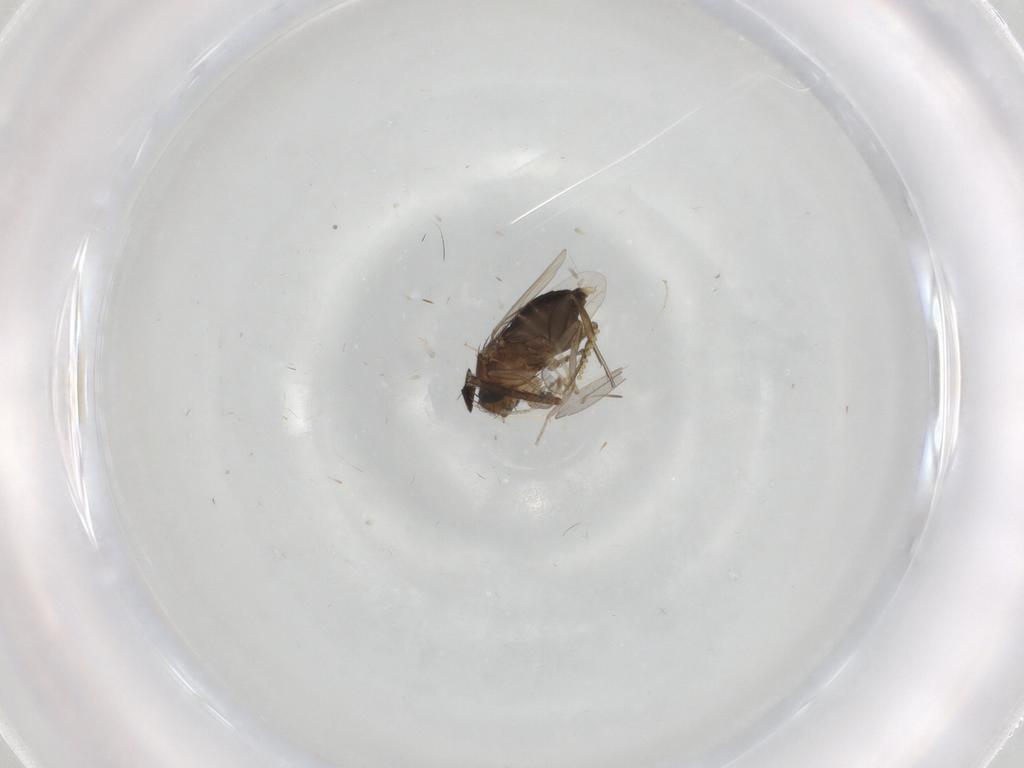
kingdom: Animalia
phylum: Arthropoda
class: Insecta
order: Diptera
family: Phoridae
